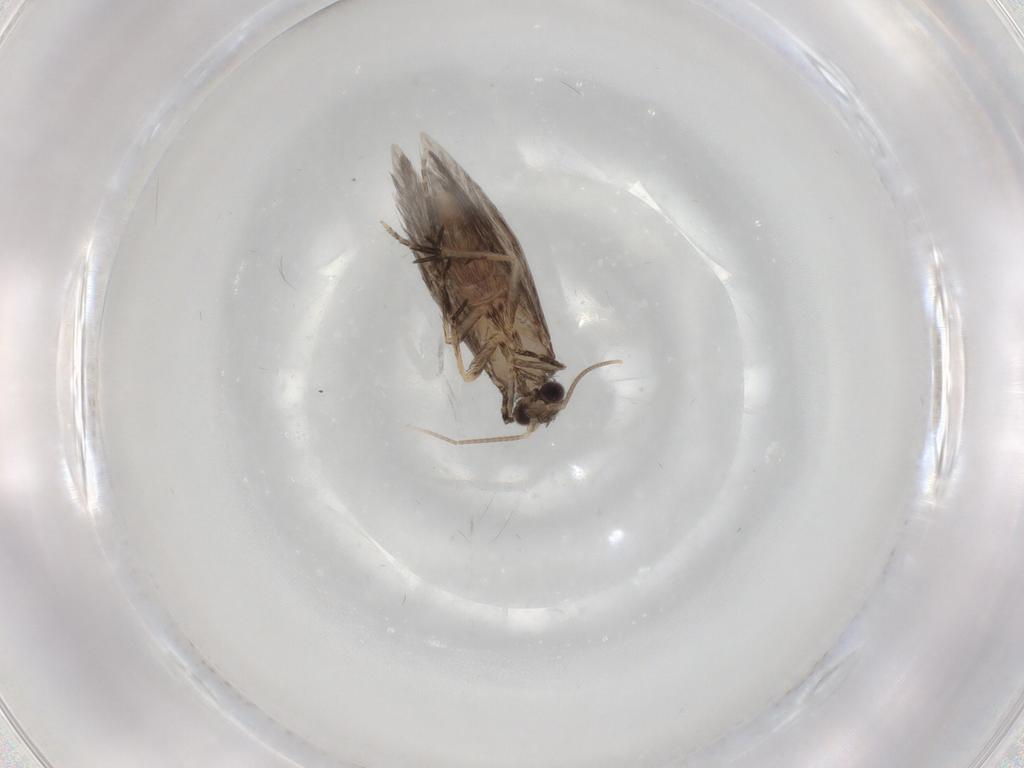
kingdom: Animalia
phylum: Arthropoda
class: Insecta
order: Trichoptera
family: Hydroptilidae
